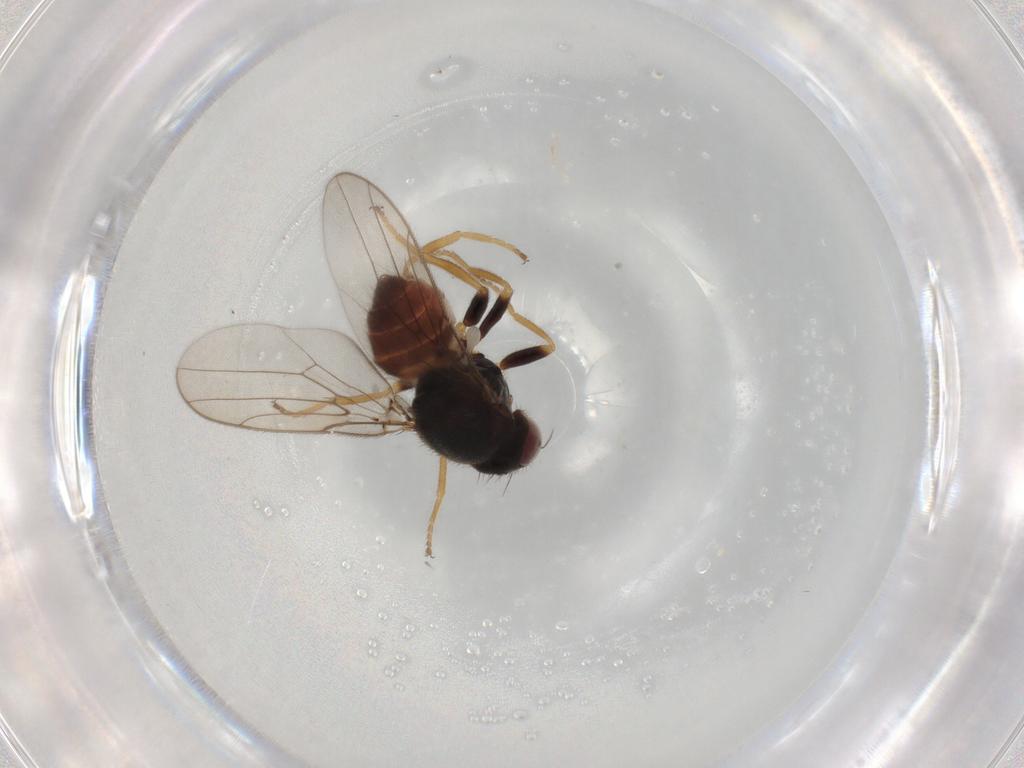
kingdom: Animalia
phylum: Arthropoda
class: Insecta
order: Diptera
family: Chloropidae
